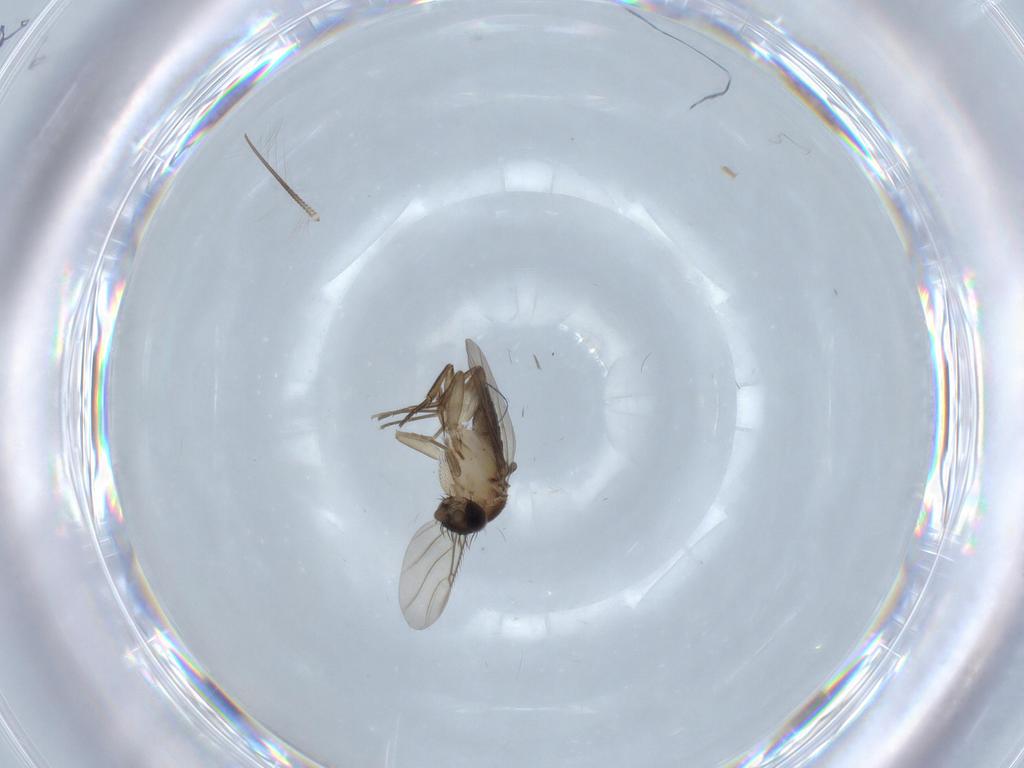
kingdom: Animalia
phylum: Arthropoda
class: Insecta
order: Diptera
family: Phoridae
